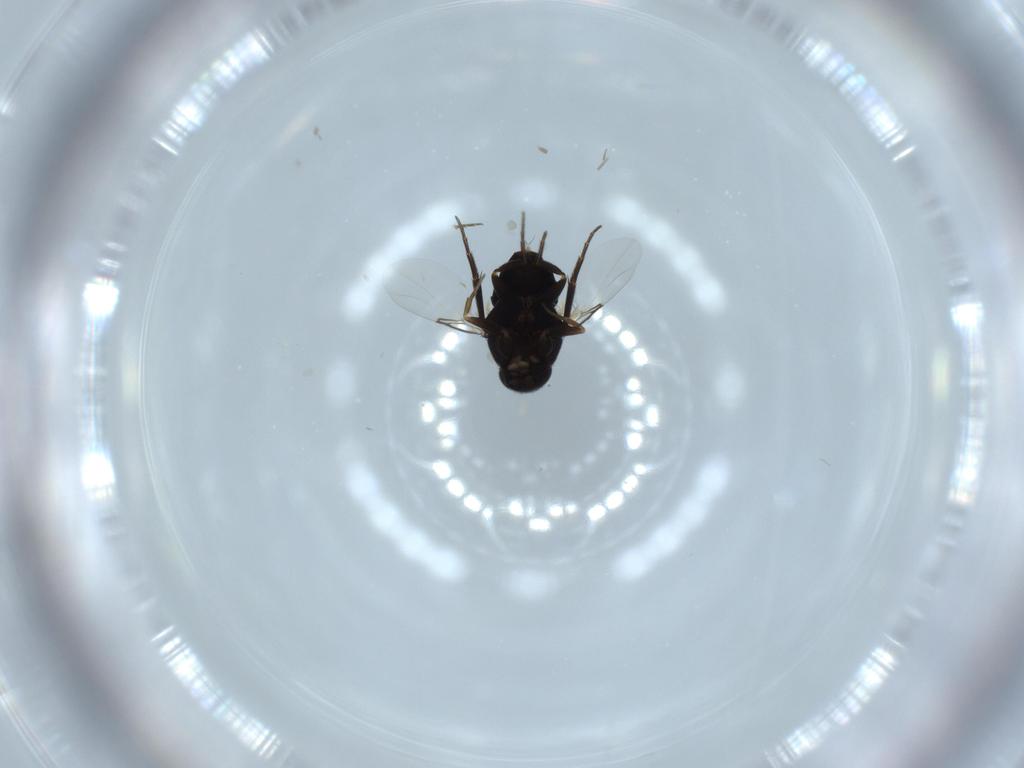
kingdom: Animalia
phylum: Arthropoda
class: Insecta
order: Diptera
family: Phoridae
